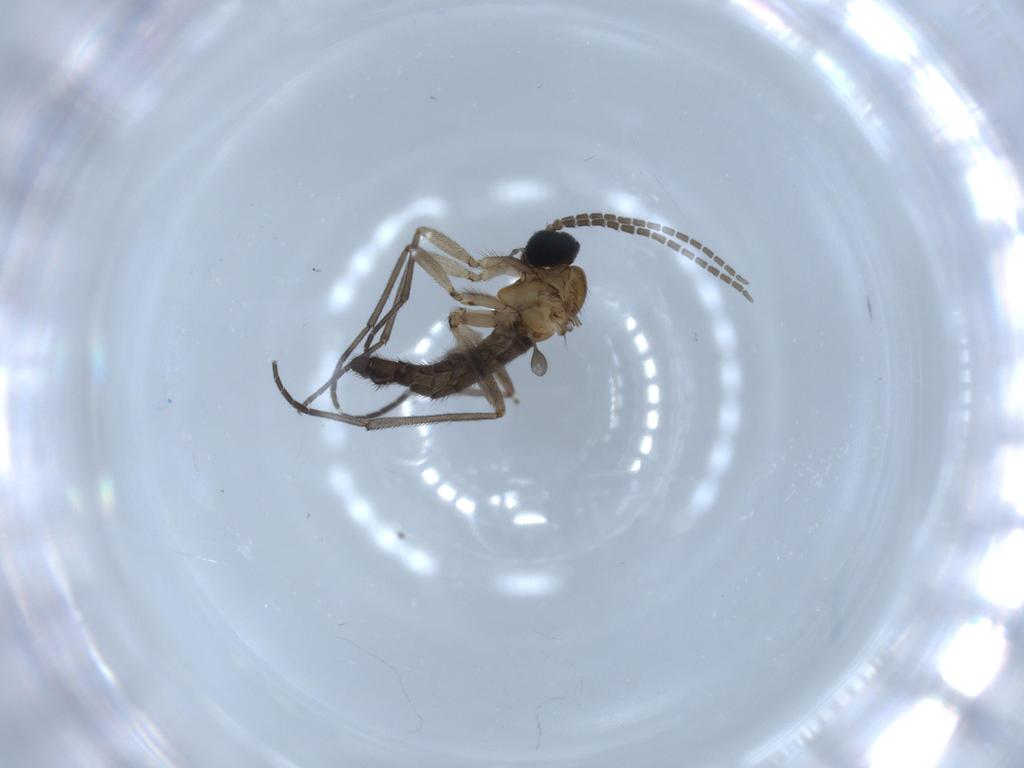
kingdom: Animalia
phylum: Arthropoda
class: Insecta
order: Diptera
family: Sciaridae
